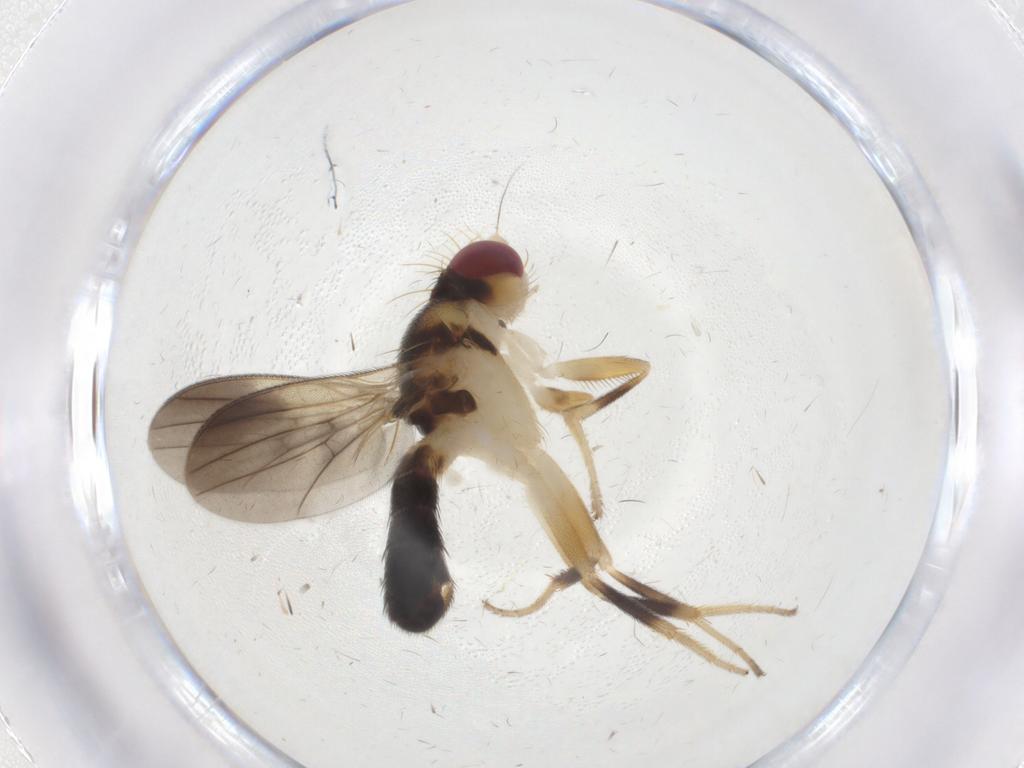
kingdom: Animalia
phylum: Arthropoda
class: Insecta
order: Diptera
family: Clusiidae
